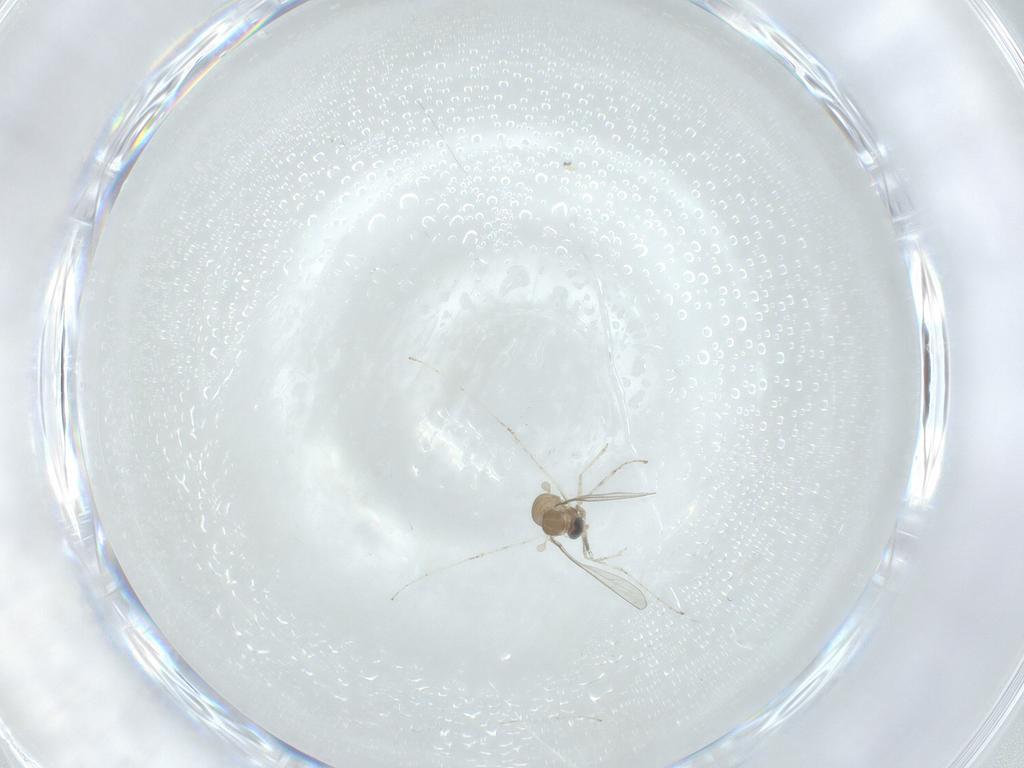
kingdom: Animalia
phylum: Arthropoda
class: Insecta
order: Diptera
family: Cecidomyiidae
